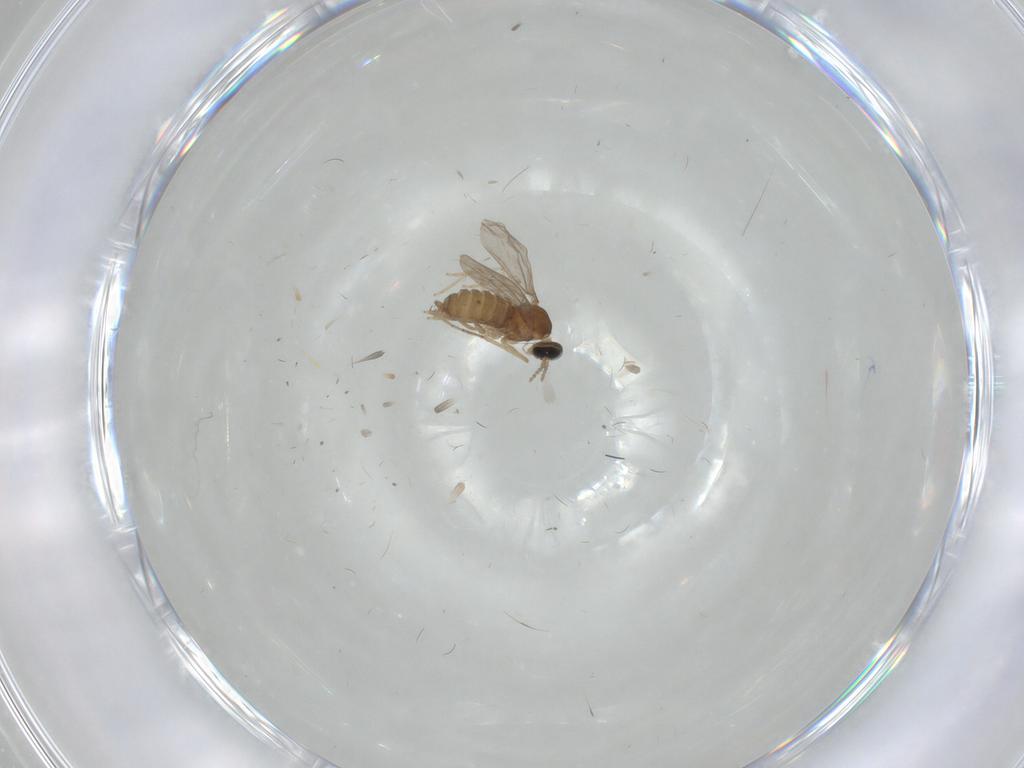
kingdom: Animalia
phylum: Arthropoda
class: Insecta
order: Diptera
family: Cecidomyiidae
